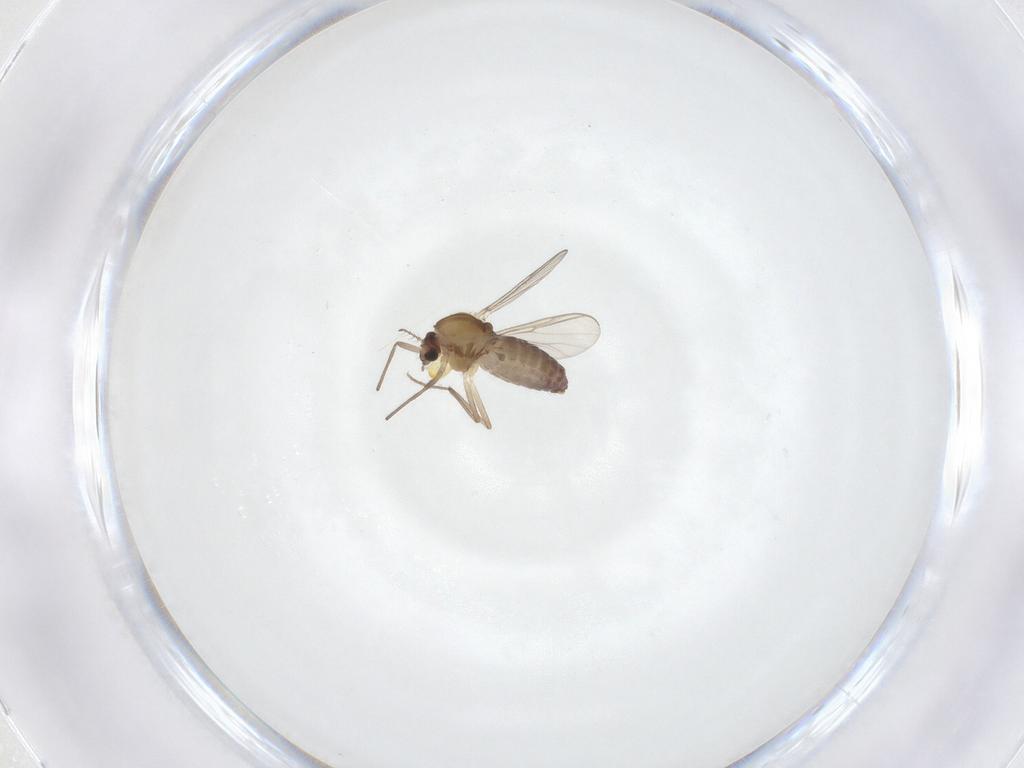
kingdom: Animalia
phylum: Arthropoda
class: Insecta
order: Diptera
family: Chironomidae
